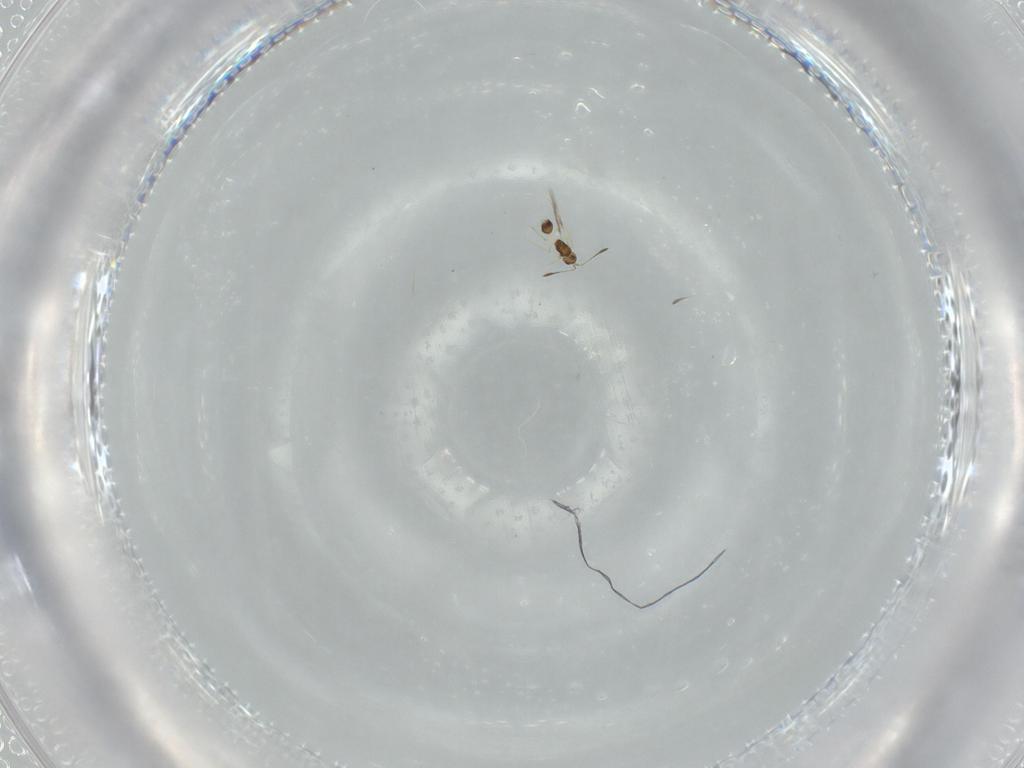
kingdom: Animalia
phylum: Arthropoda
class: Insecta
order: Hymenoptera
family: Mymarommatidae
